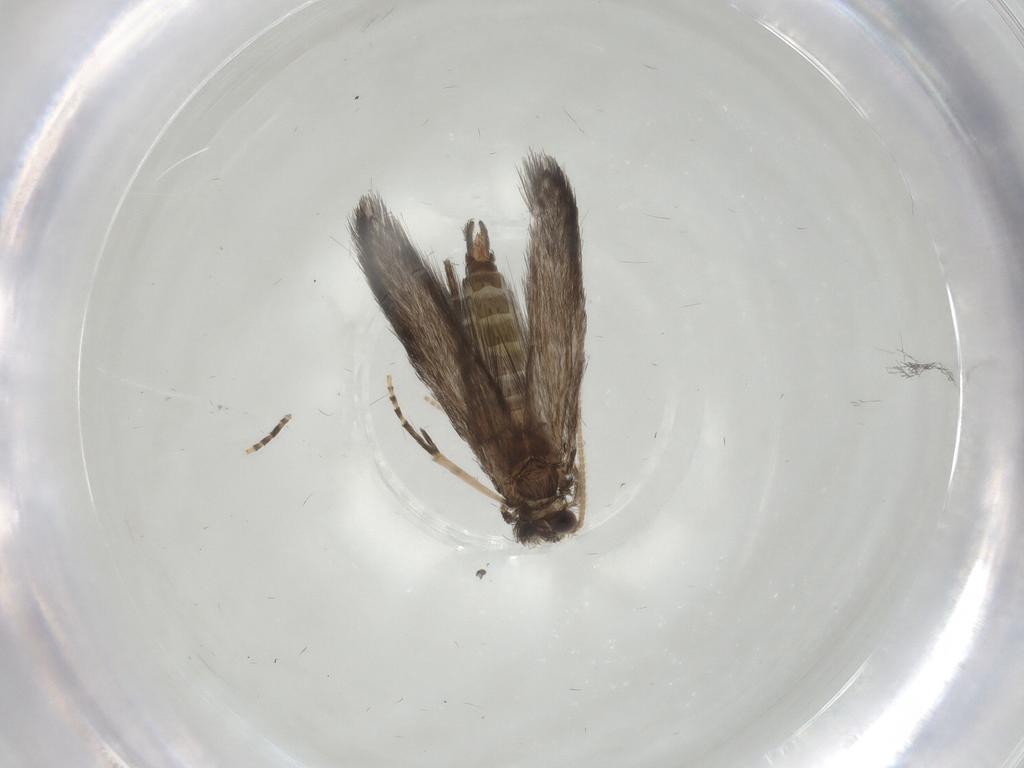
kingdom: Animalia
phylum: Arthropoda
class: Insecta
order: Trichoptera
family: Hydroptilidae
